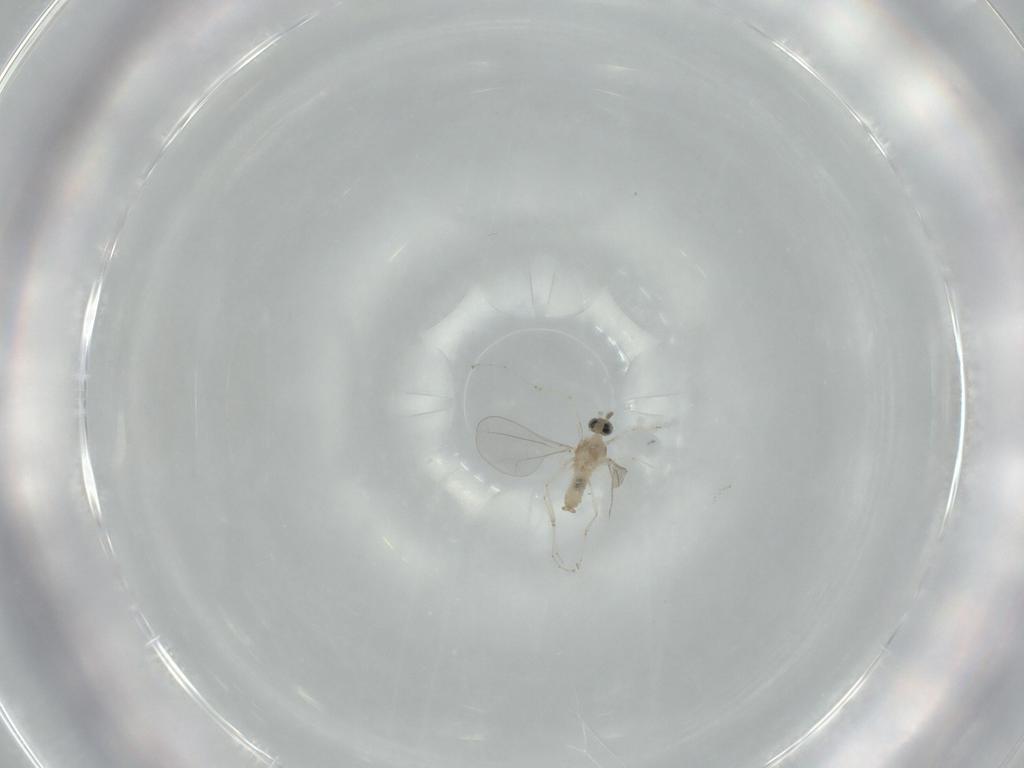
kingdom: Animalia
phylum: Arthropoda
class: Insecta
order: Diptera
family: Cecidomyiidae
